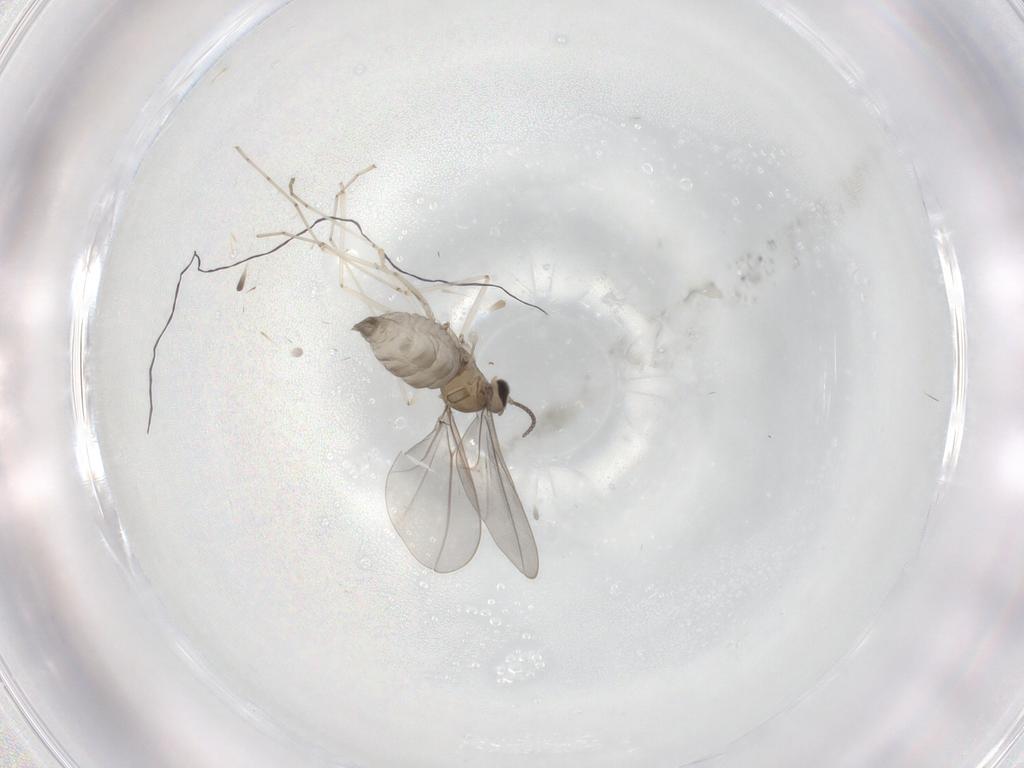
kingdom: Animalia
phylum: Arthropoda
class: Insecta
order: Diptera
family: Cecidomyiidae
